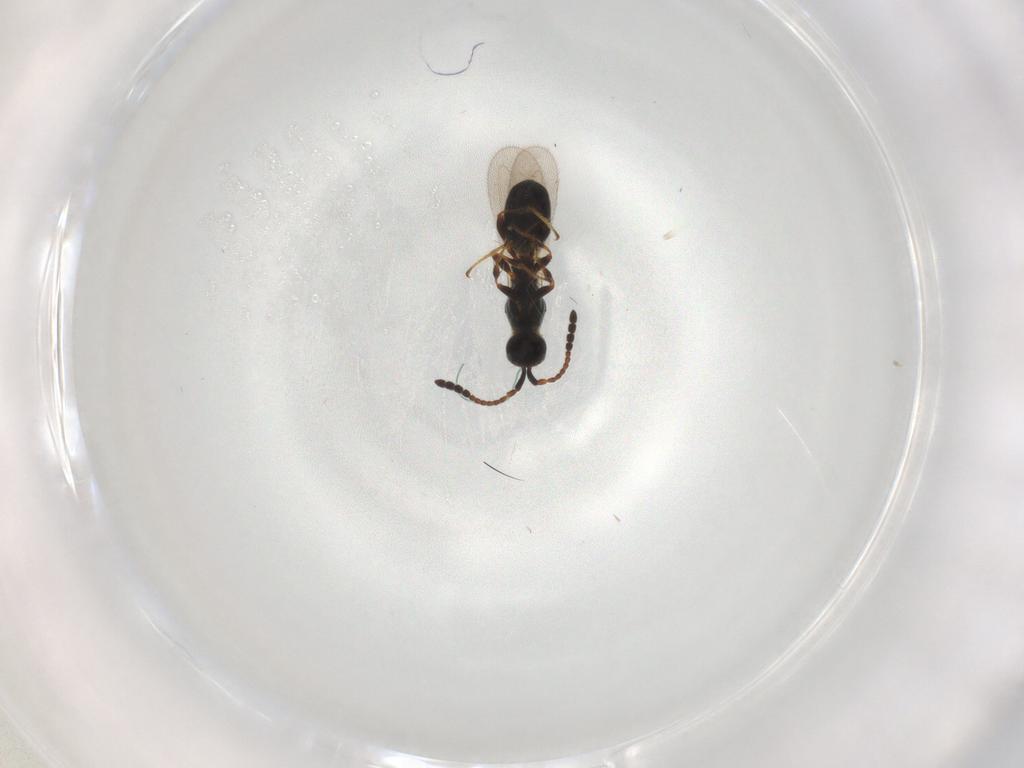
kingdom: Animalia
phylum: Arthropoda
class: Insecta
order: Hymenoptera
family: Diapriidae
